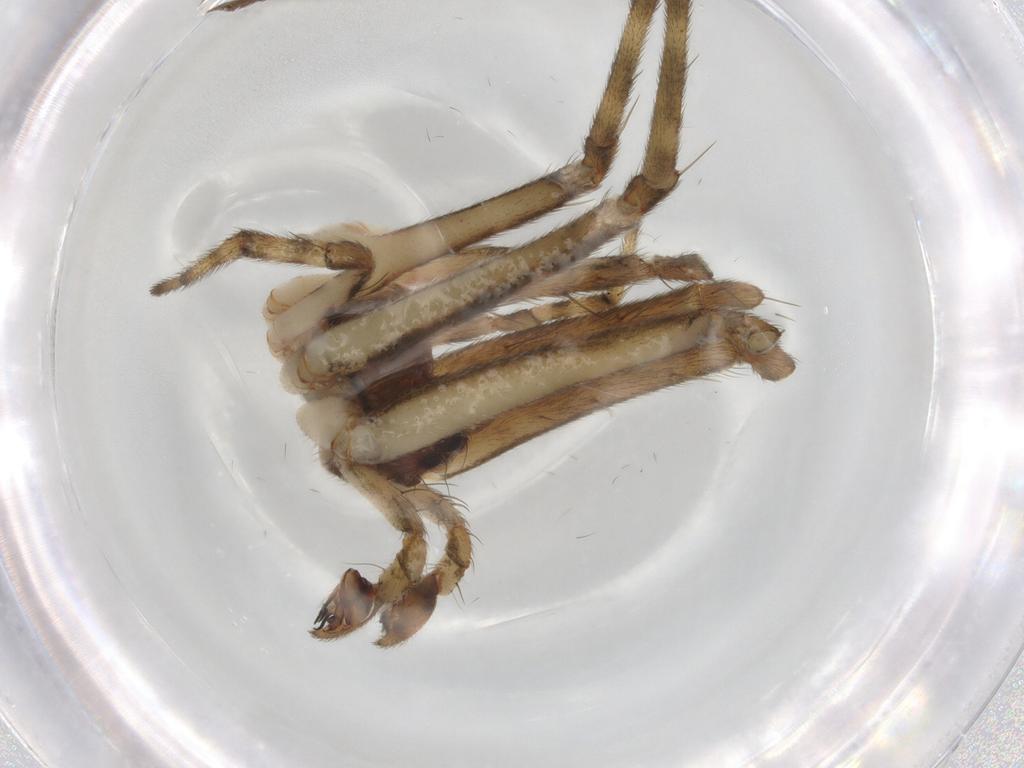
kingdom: Animalia
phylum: Arthropoda
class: Arachnida
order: Araneae
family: Hersiliidae
